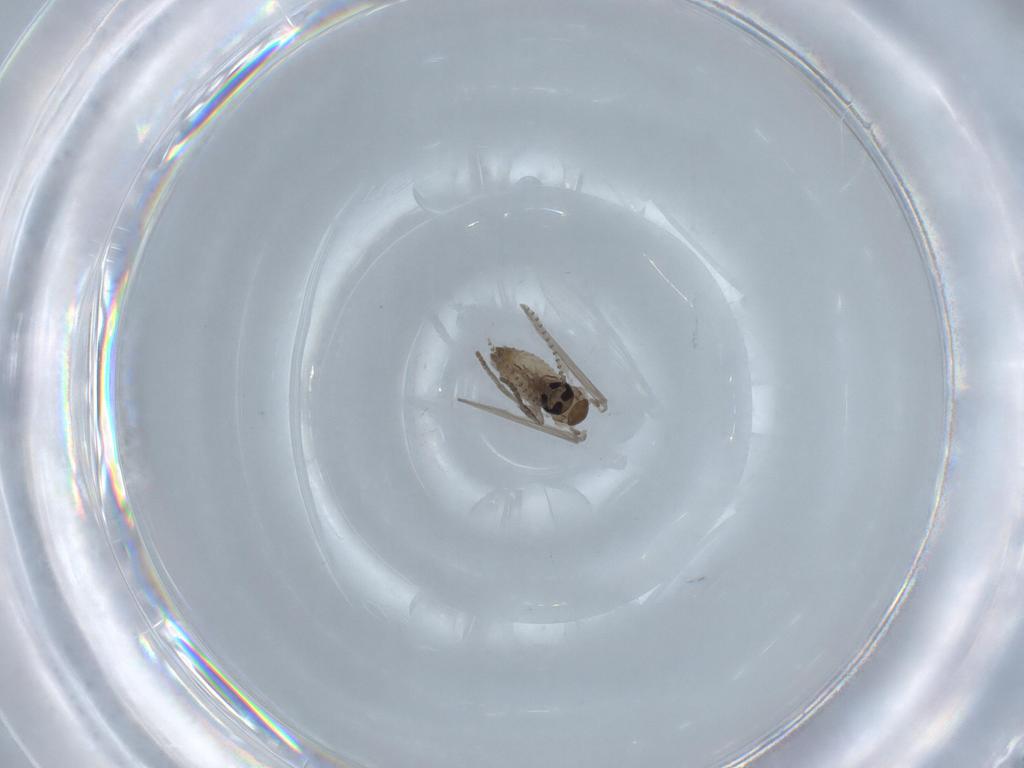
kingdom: Animalia
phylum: Arthropoda
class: Insecta
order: Diptera
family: Psychodidae
